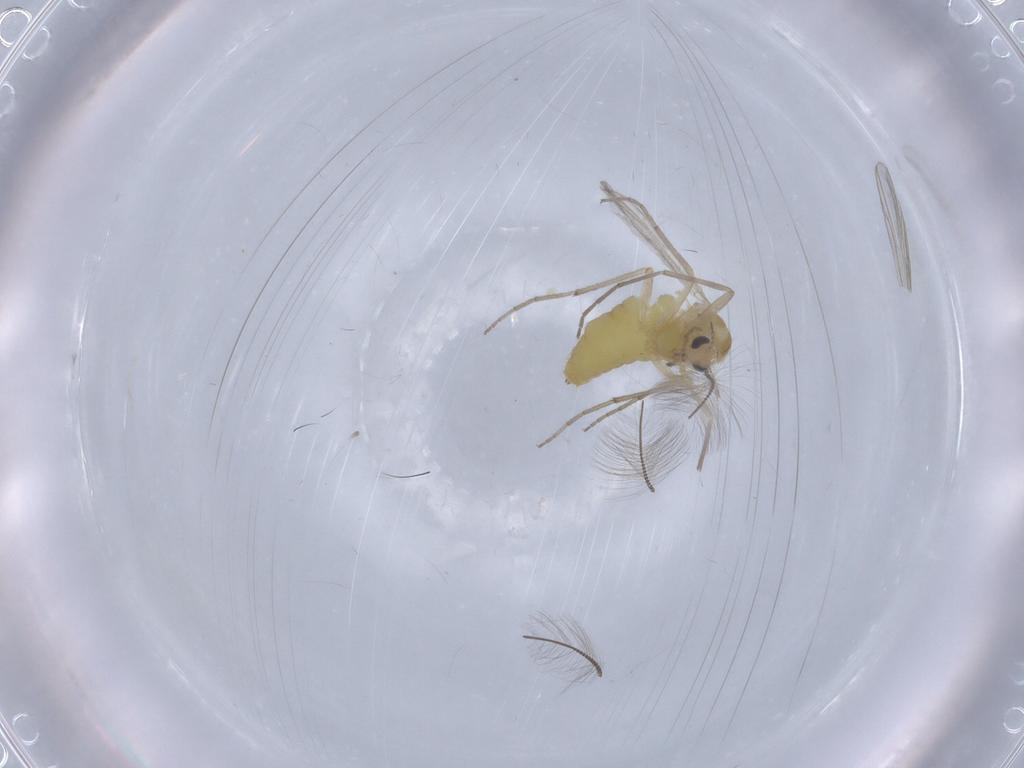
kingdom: Animalia
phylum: Arthropoda
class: Insecta
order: Diptera
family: Chironomidae
